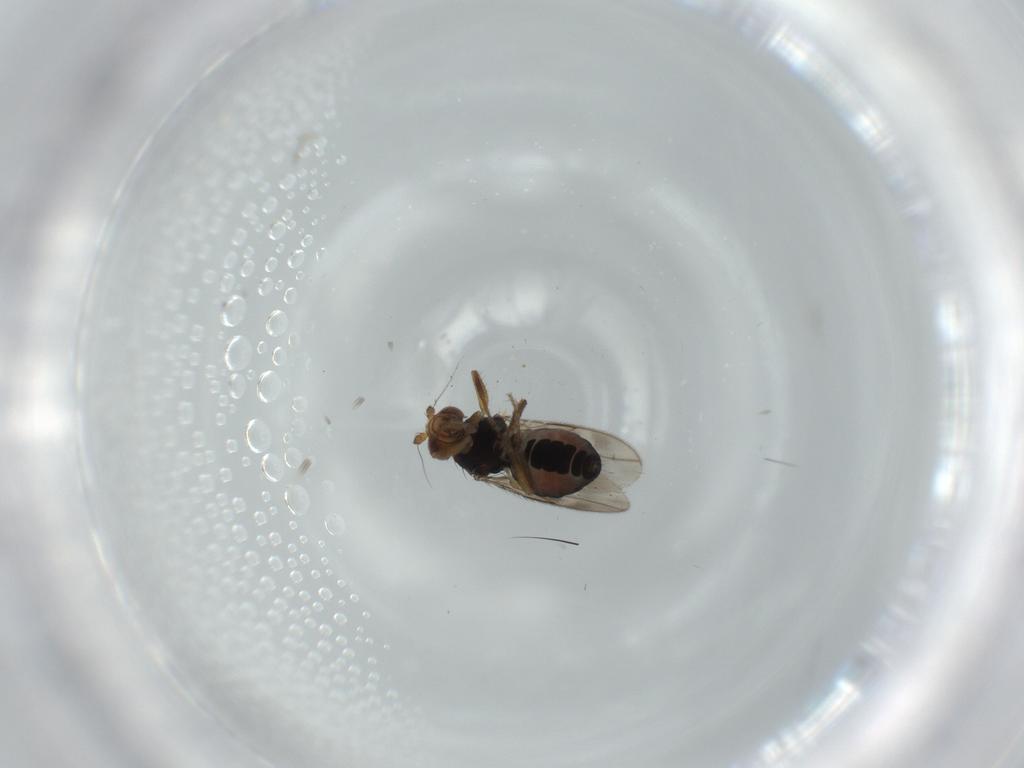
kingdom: Animalia
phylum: Arthropoda
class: Insecta
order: Diptera
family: Sphaeroceridae
